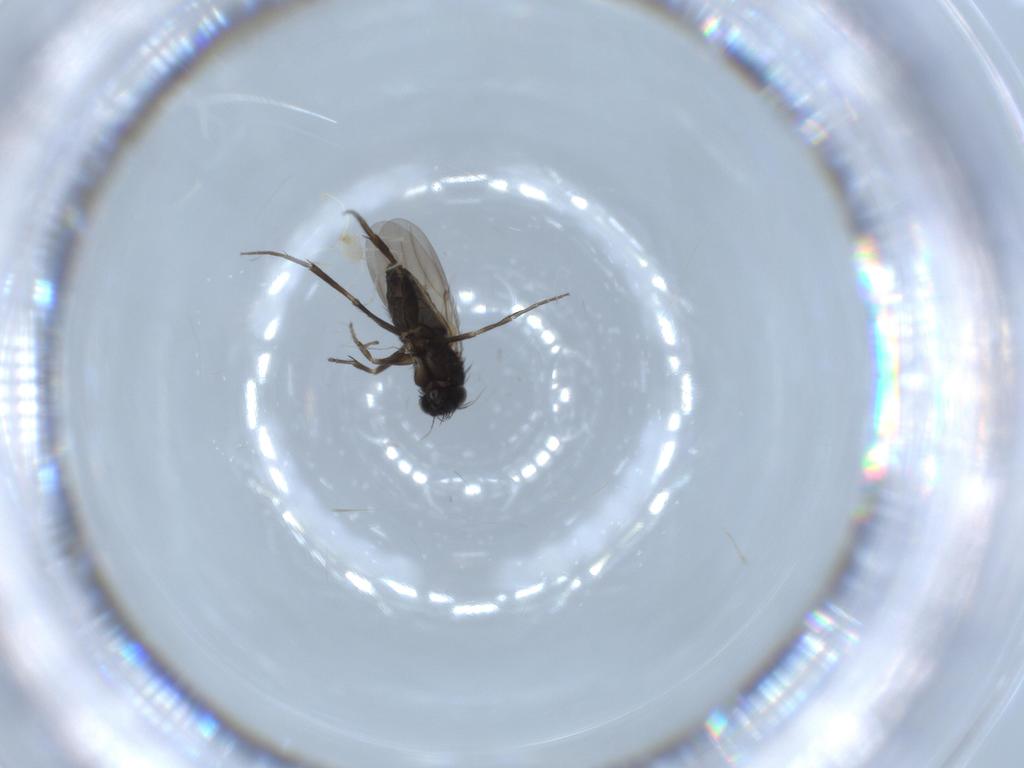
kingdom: Animalia
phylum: Arthropoda
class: Insecta
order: Diptera
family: Phoridae
